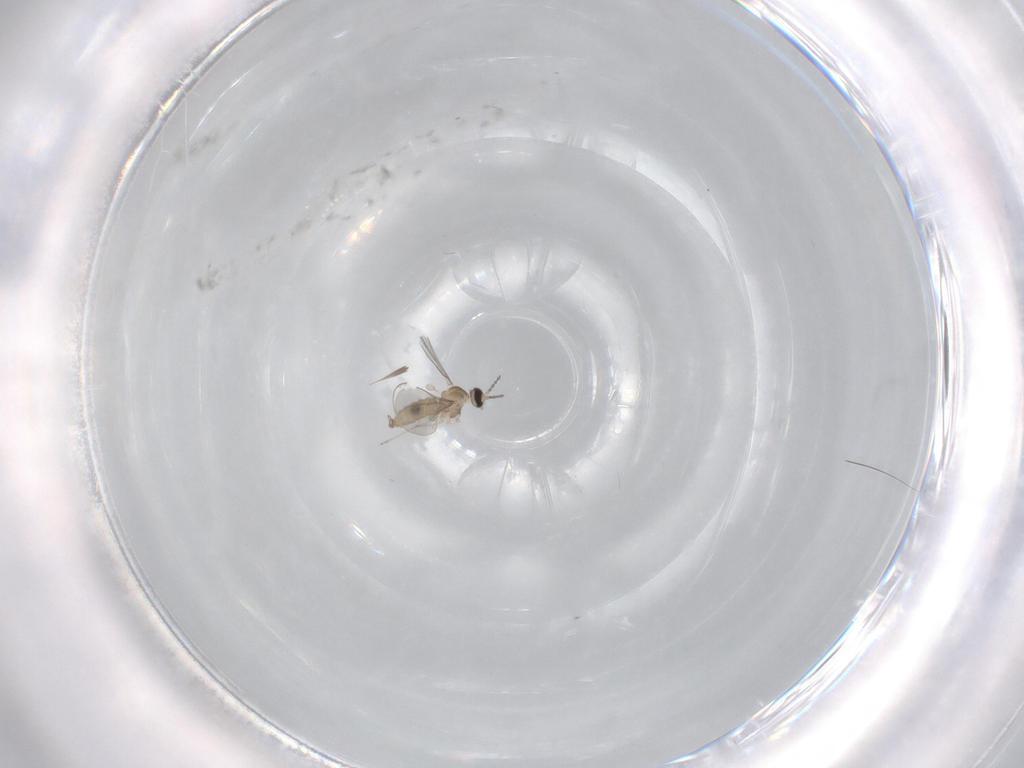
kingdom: Animalia
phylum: Arthropoda
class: Insecta
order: Diptera
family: Cecidomyiidae
